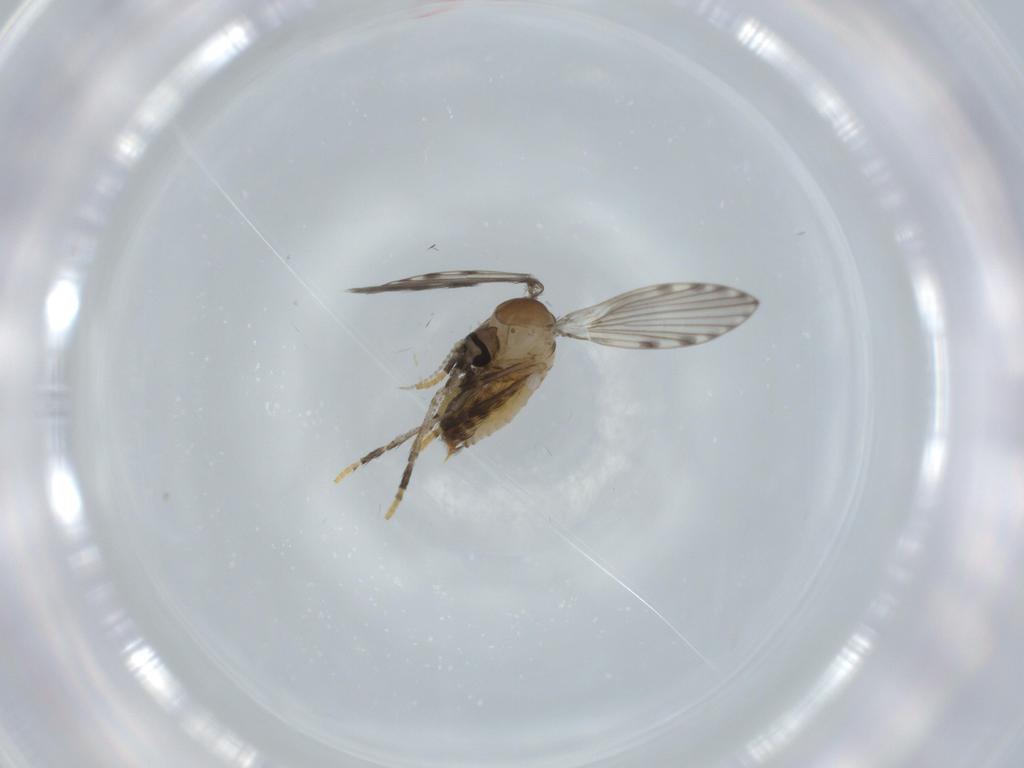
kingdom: Animalia
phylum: Arthropoda
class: Insecta
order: Diptera
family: Psychodidae
